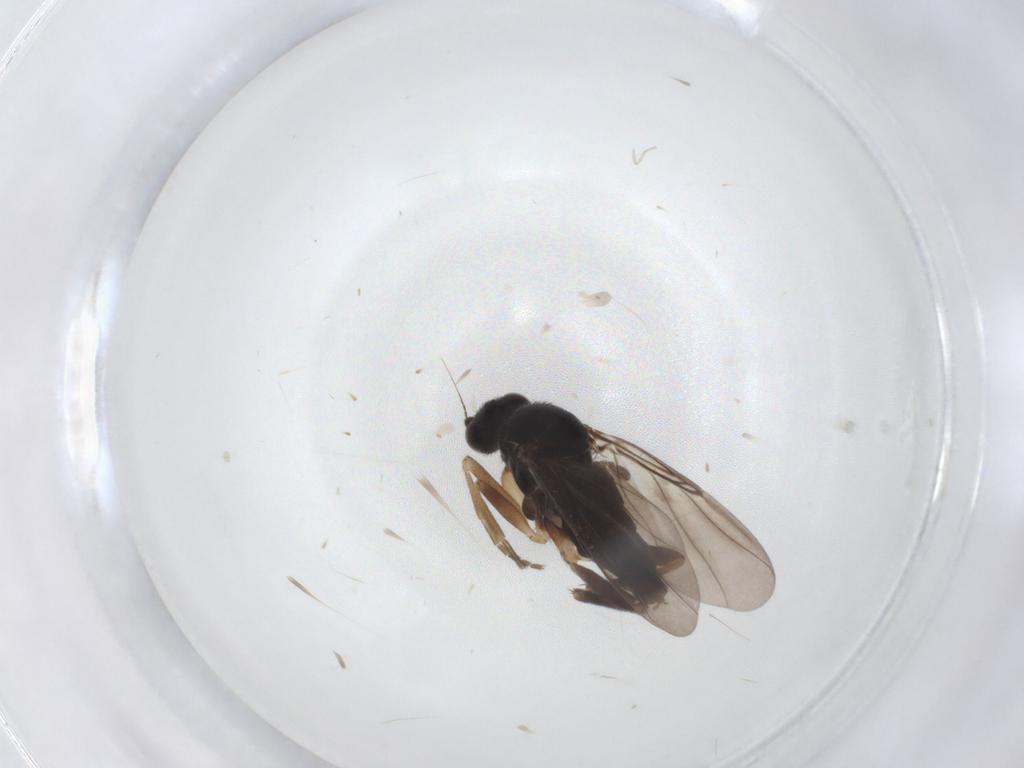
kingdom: Animalia
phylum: Arthropoda
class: Insecta
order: Diptera
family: Phoridae
